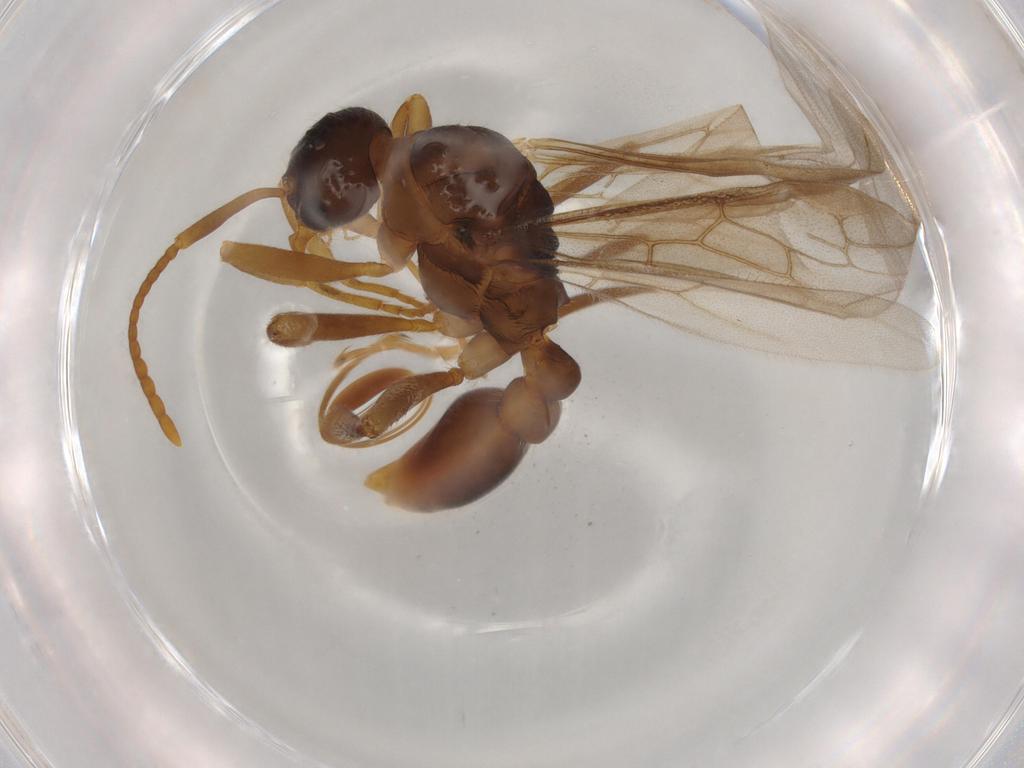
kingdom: Animalia
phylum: Arthropoda
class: Insecta
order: Hymenoptera
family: Formicidae
